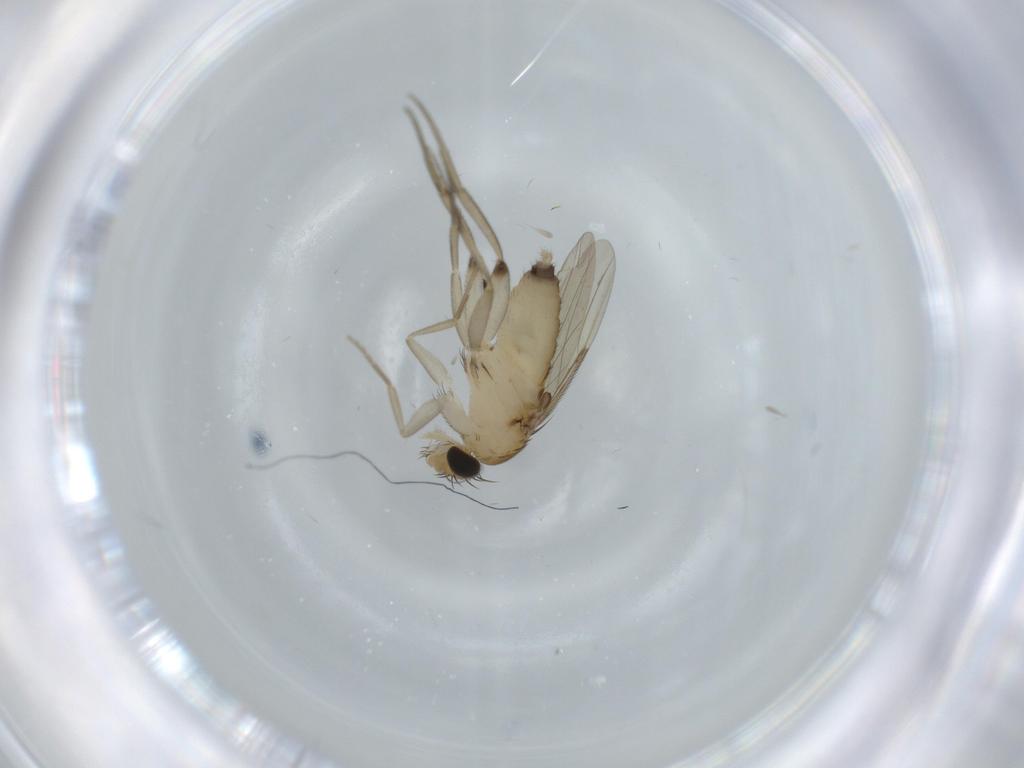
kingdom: Animalia
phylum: Arthropoda
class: Insecta
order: Diptera
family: Phoridae
